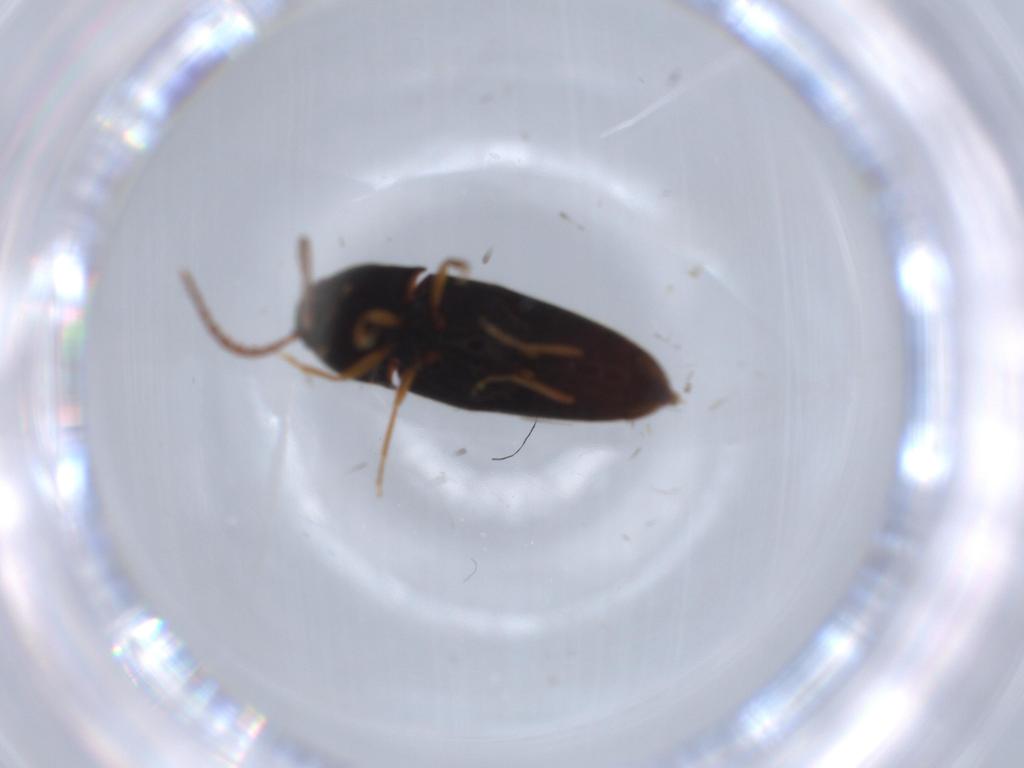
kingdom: Animalia
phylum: Arthropoda
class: Insecta
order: Coleoptera
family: Elateridae
